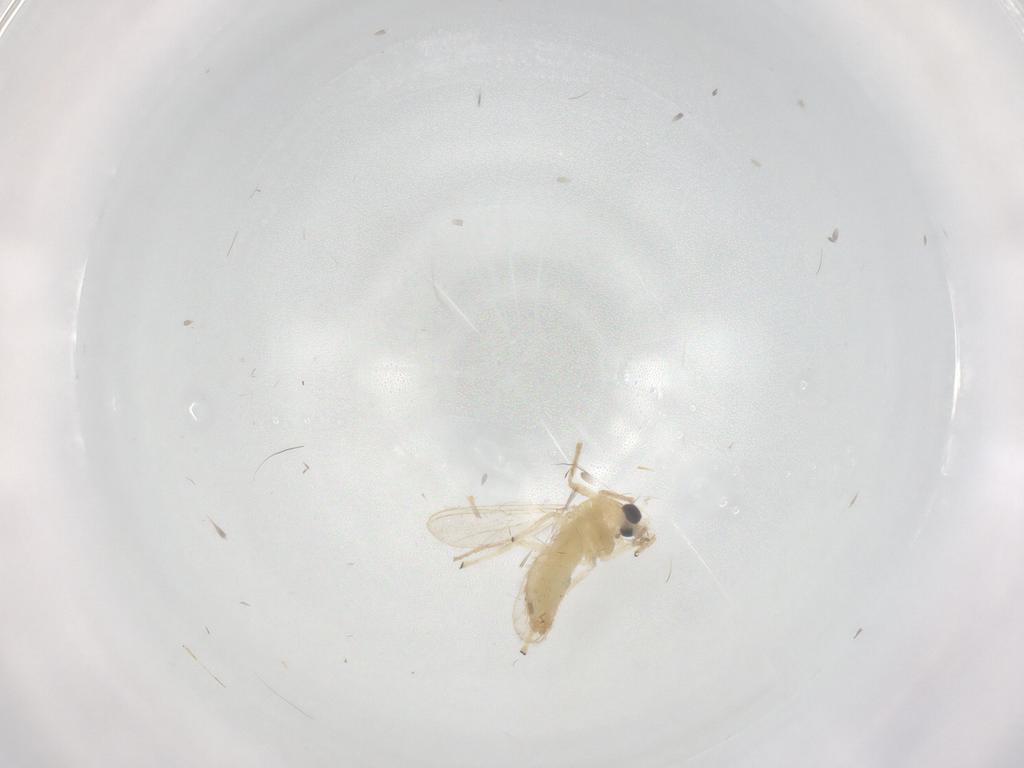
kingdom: Animalia
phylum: Arthropoda
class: Insecta
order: Diptera
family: Chironomidae
